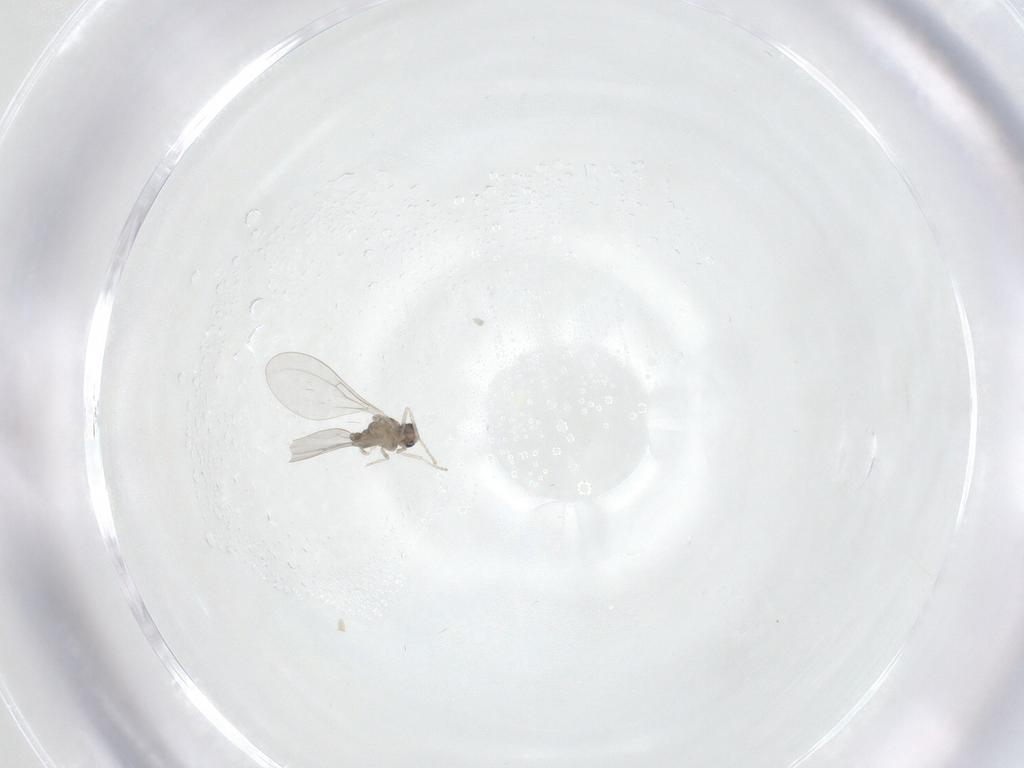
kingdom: Animalia
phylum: Arthropoda
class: Insecta
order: Diptera
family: Cecidomyiidae
